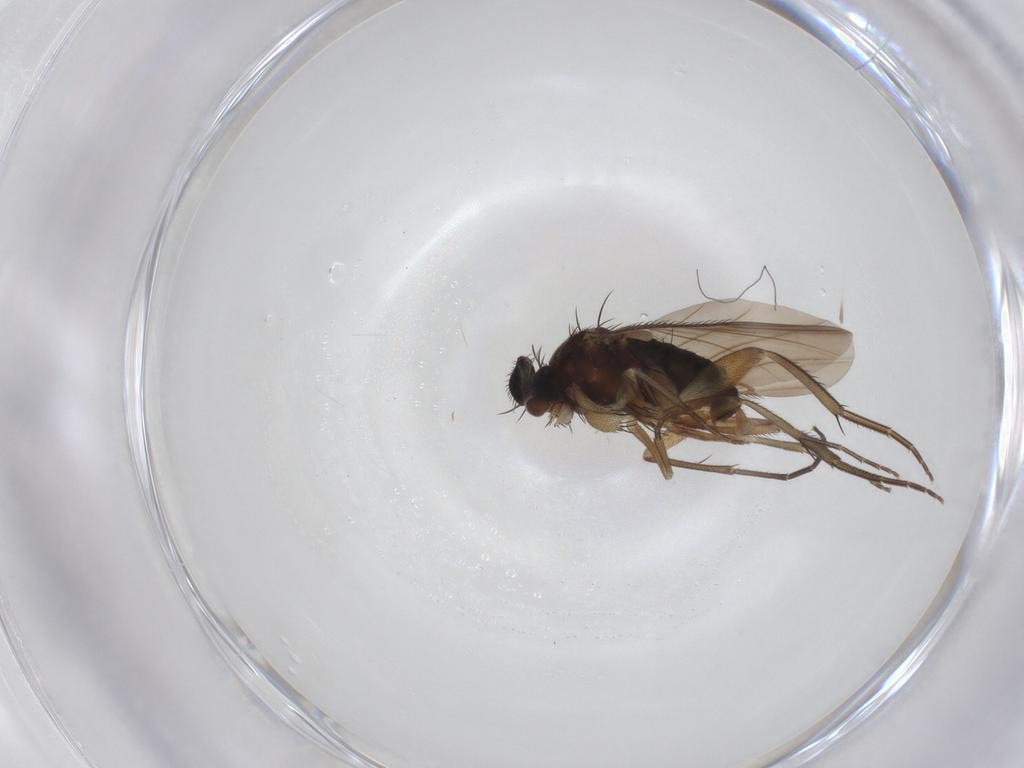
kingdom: Animalia
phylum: Arthropoda
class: Insecta
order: Diptera
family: Phoridae
